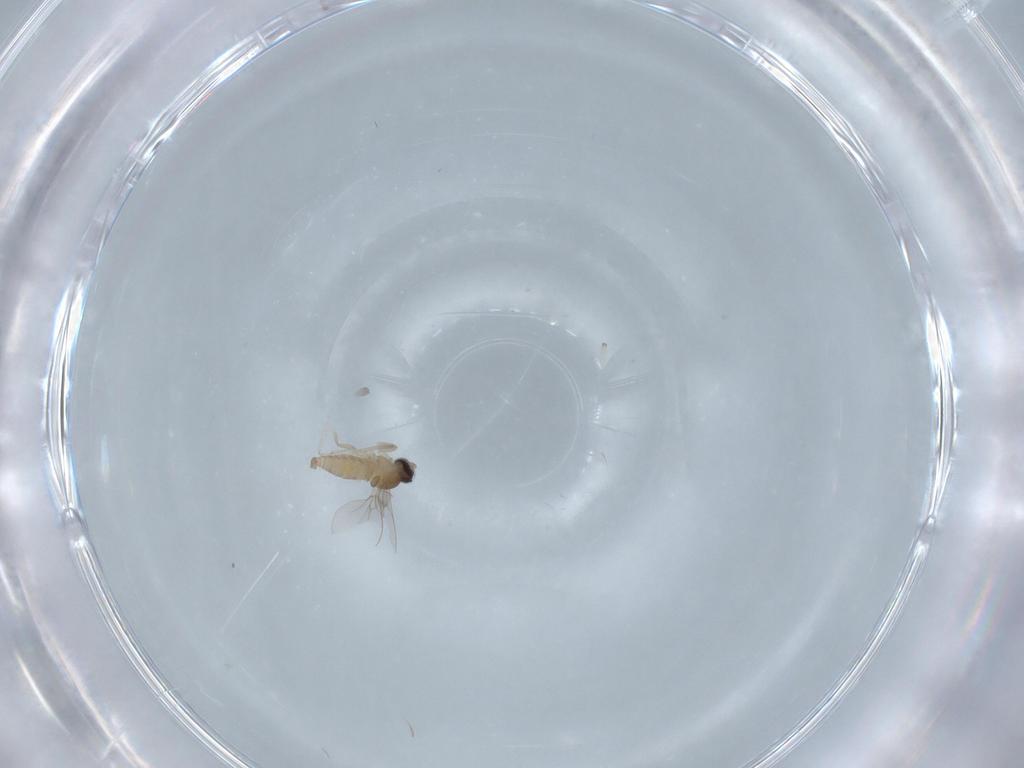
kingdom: Animalia
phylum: Arthropoda
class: Insecta
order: Diptera
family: Cecidomyiidae
